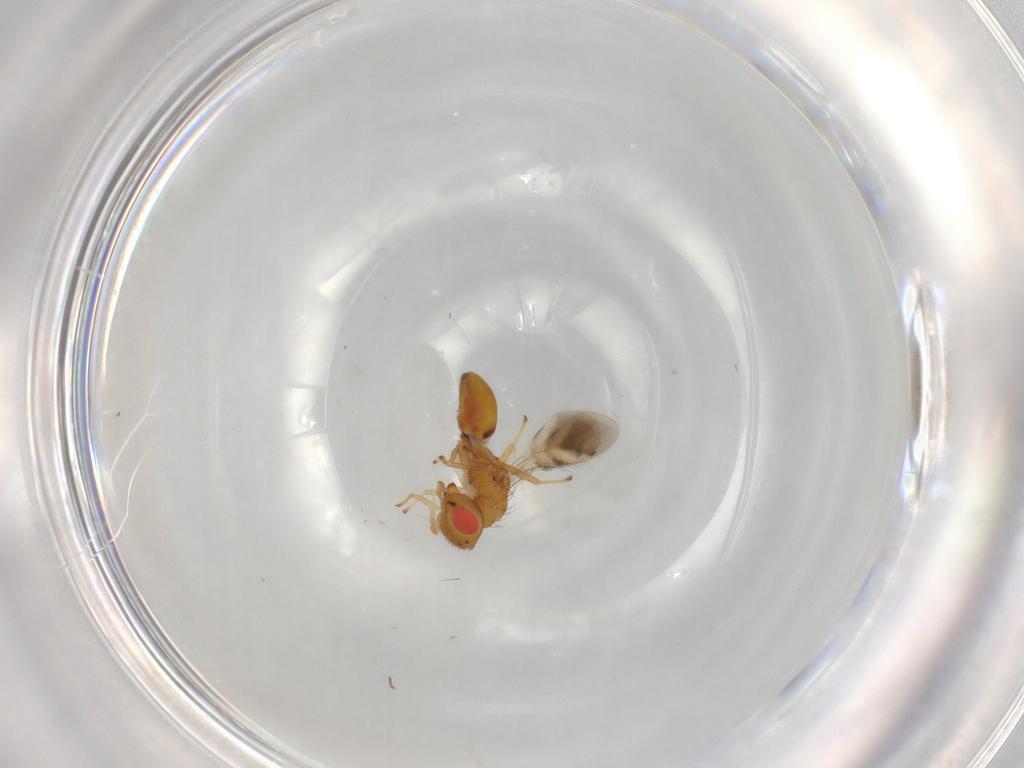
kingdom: Animalia
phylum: Arthropoda
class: Insecta
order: Hymenoptera
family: Eulophidae
